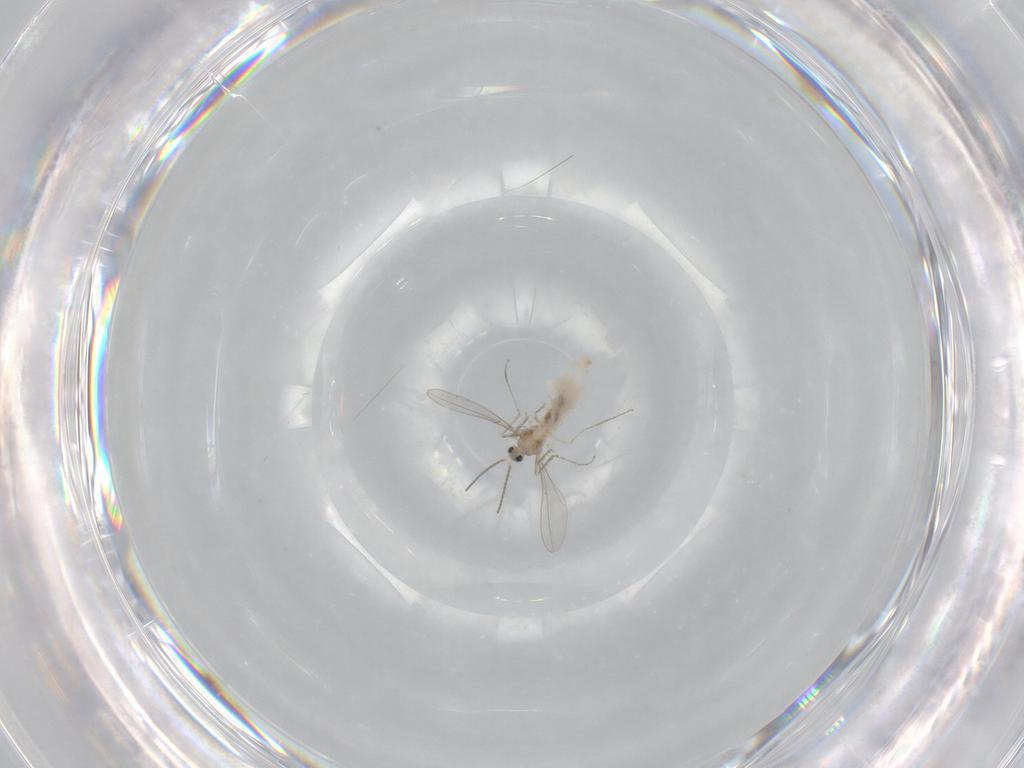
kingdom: Animalia
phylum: Arthropoda
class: Insecta
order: Diptera
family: Cecidomyiidae
